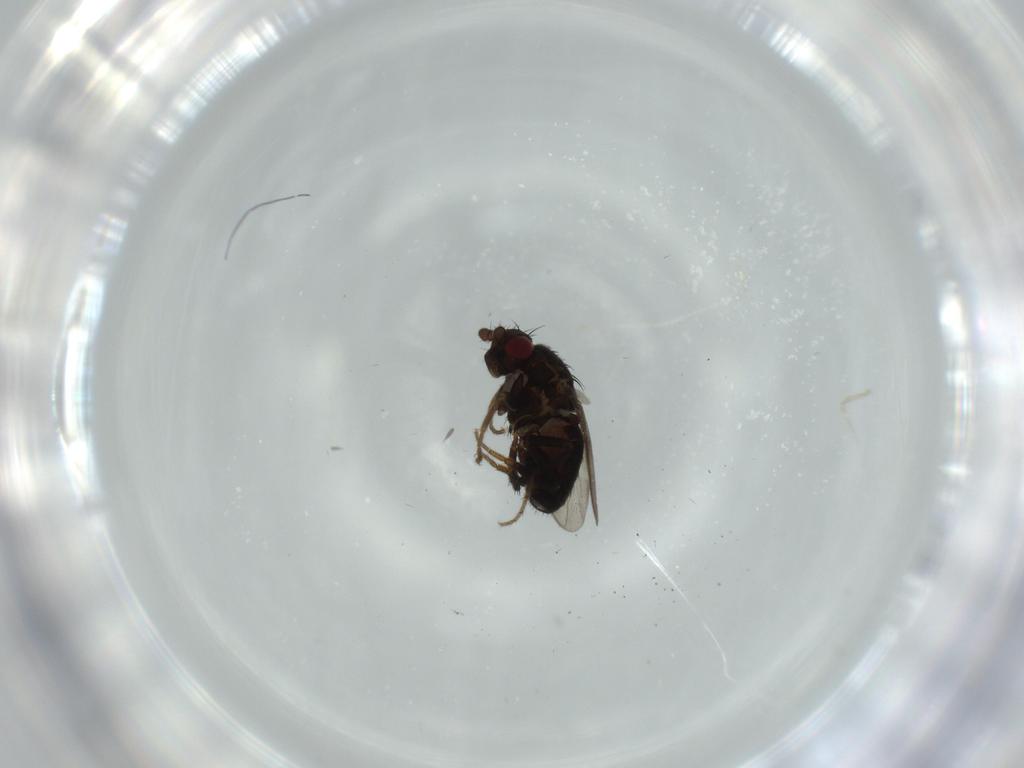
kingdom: Animalia
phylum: Arthropoda
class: Insecta
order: Diptera
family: Sphaeroceridae
